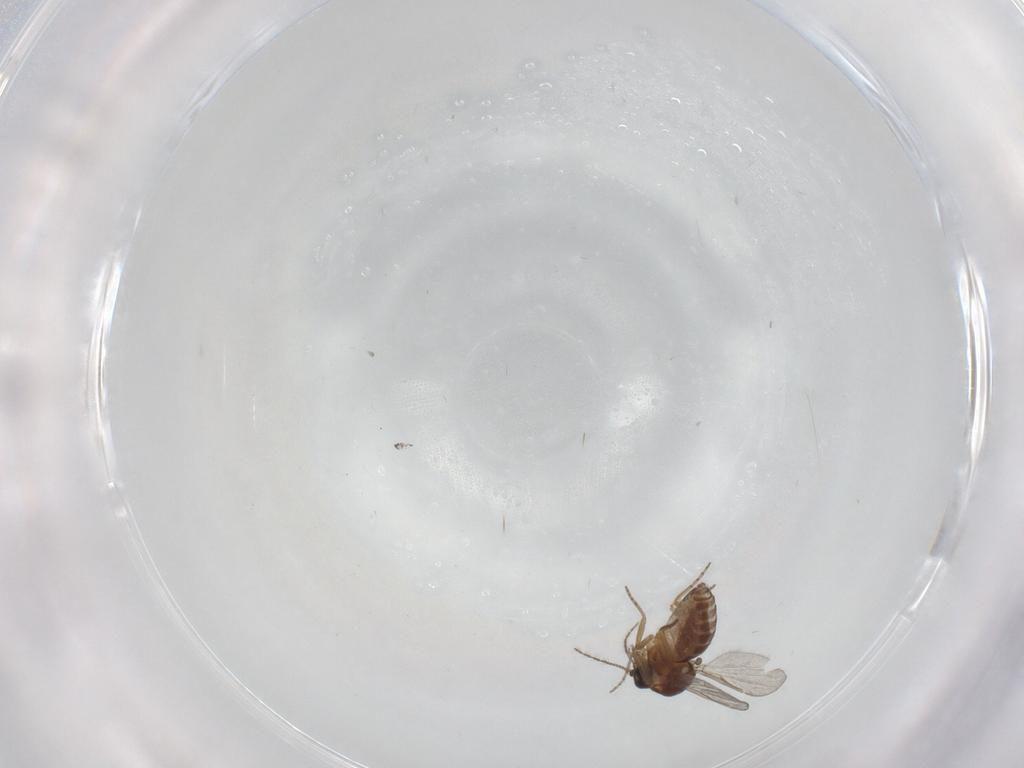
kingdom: Animalia
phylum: Arthropoda
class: Insecta
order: Diptera
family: Ceratopogonidae
